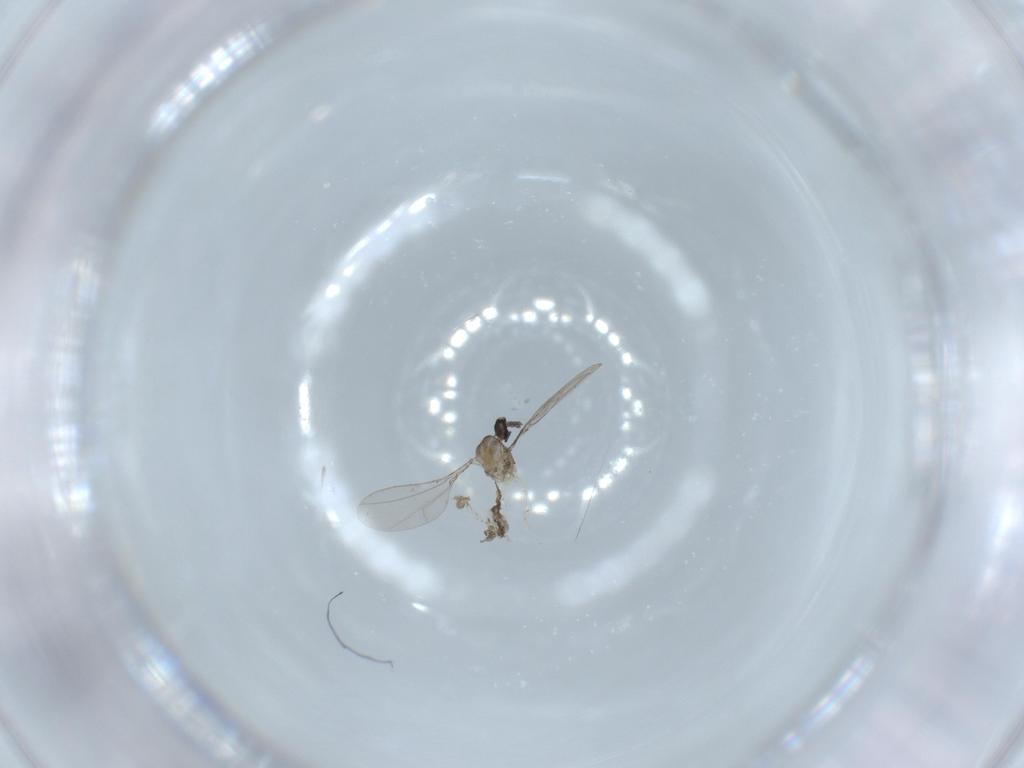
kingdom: Animalia
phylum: Arthropoda
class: Insecta
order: Diptera
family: Chironomidae
